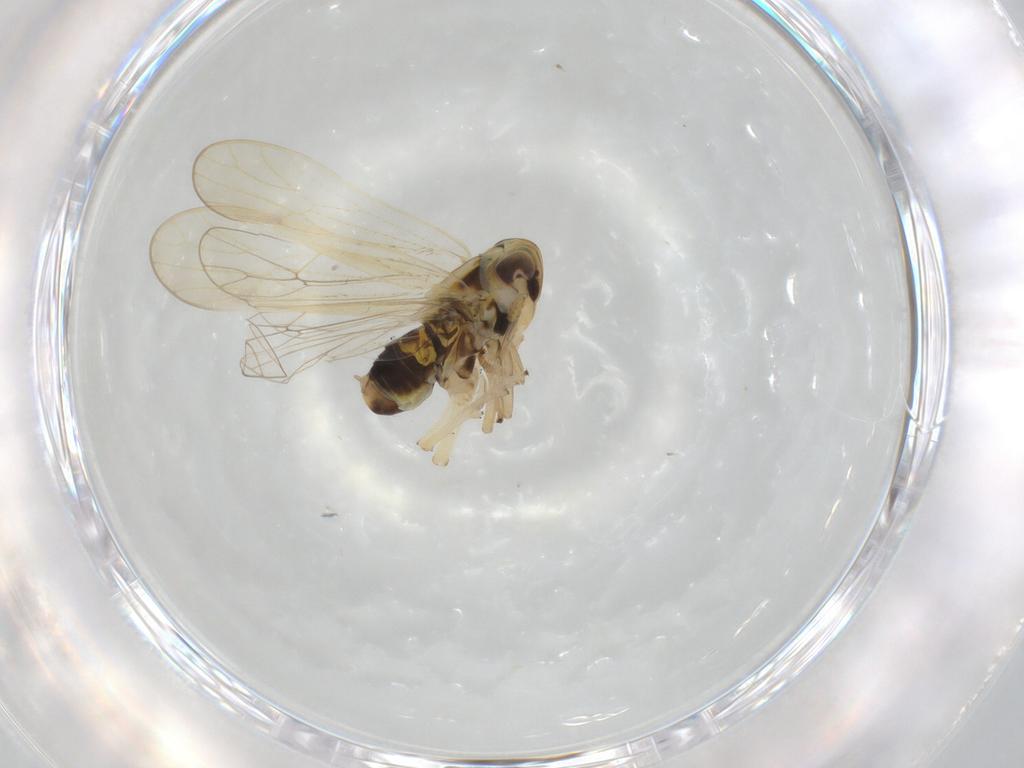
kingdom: Animalia
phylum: Arthropoda
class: Insecta
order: Hemiptera
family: Delphacidae
